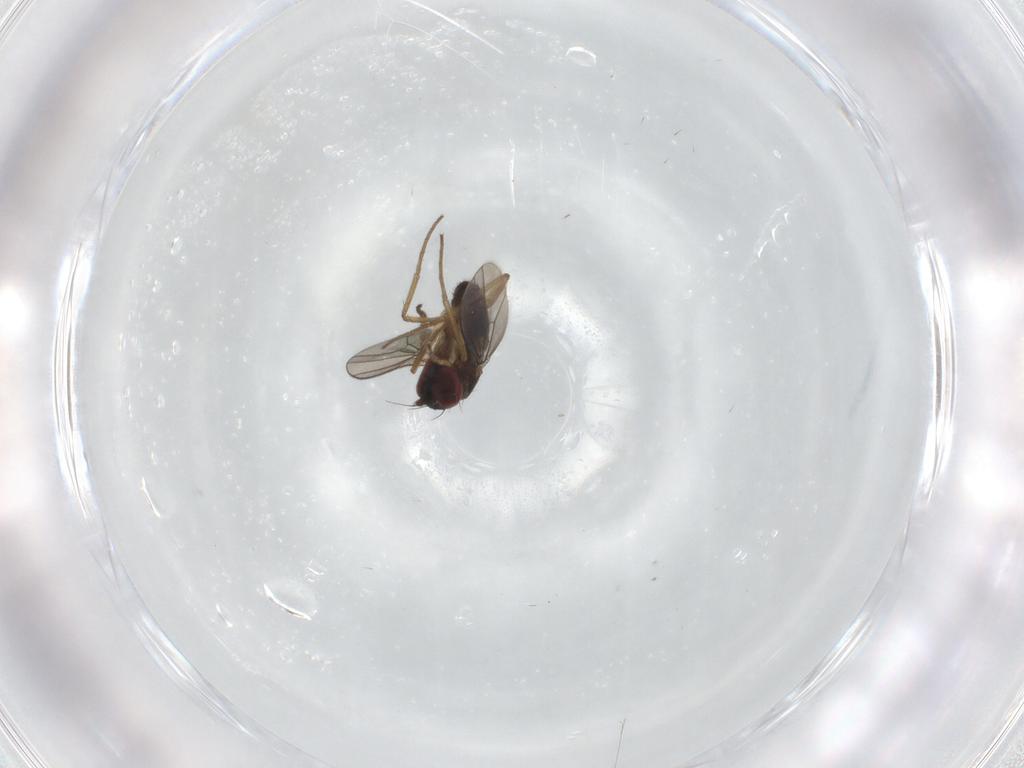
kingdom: Animalia
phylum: Arthropoda
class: Insecta
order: Diptera
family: Dolichopodidae
